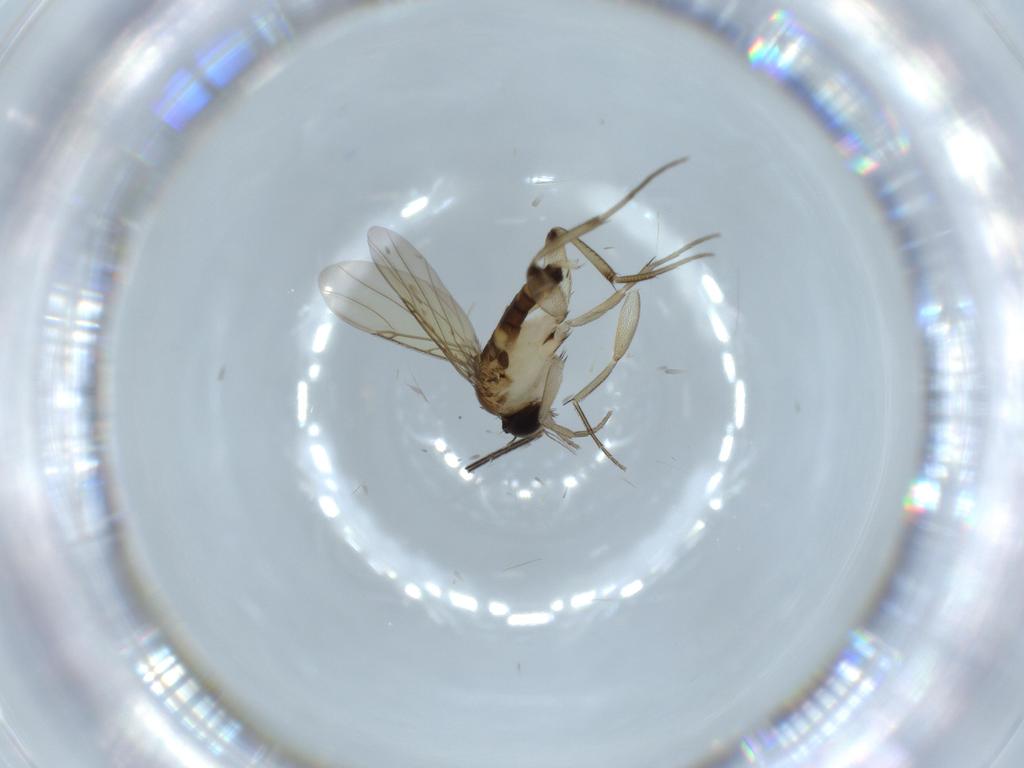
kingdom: Animalia
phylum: Arthropoda
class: Insecta
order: Diptera
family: Phoridae
